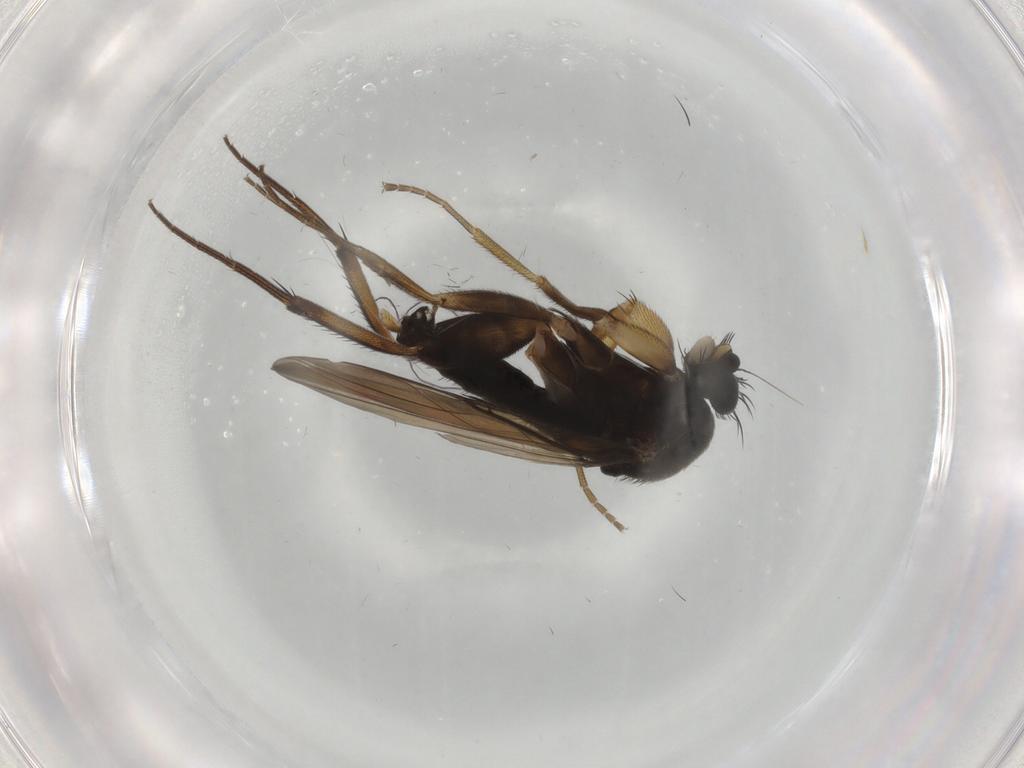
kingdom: Animalia
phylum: Arthropoda
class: Insecta
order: Diptera
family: Phoridae
